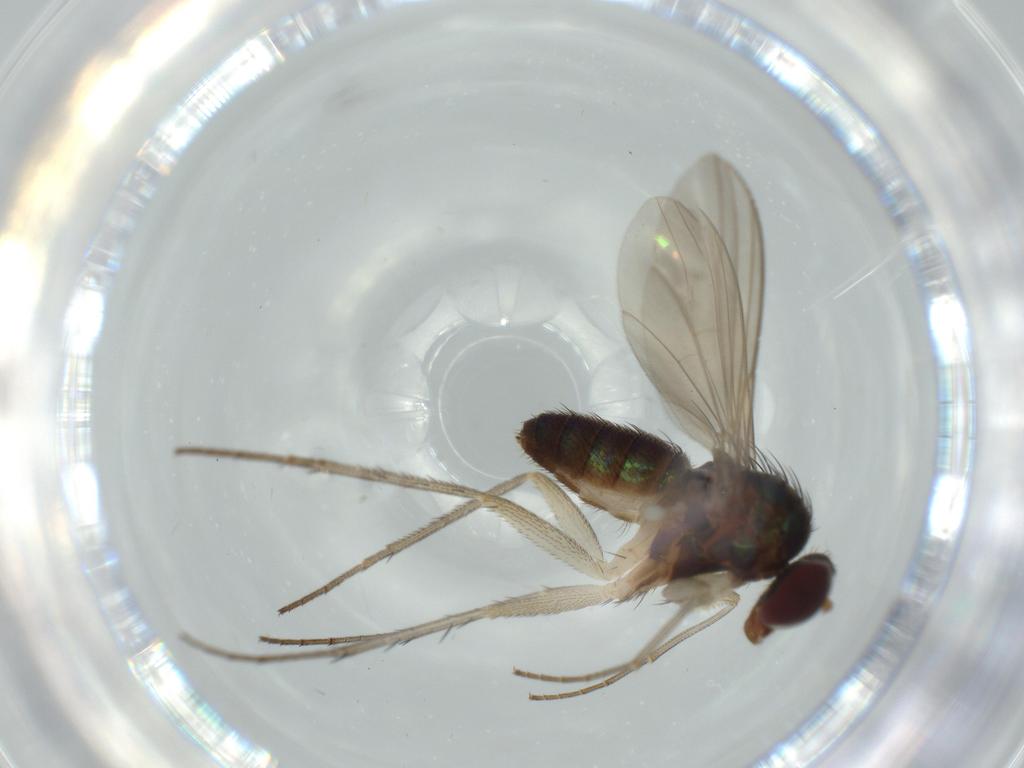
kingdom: Animalia
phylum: Arthropoda
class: Insecta
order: Diptera
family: Dolichopodidae
